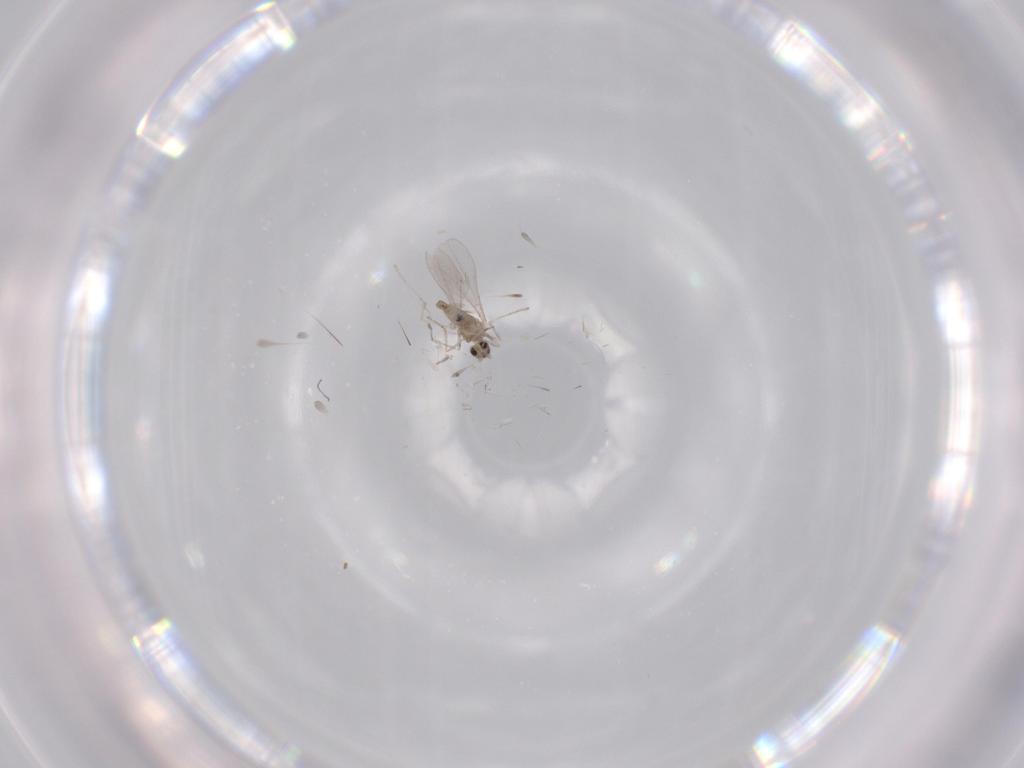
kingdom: Animalia
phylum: Arthropoda
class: Insecta
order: Diptera
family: Cecidomyiidae
